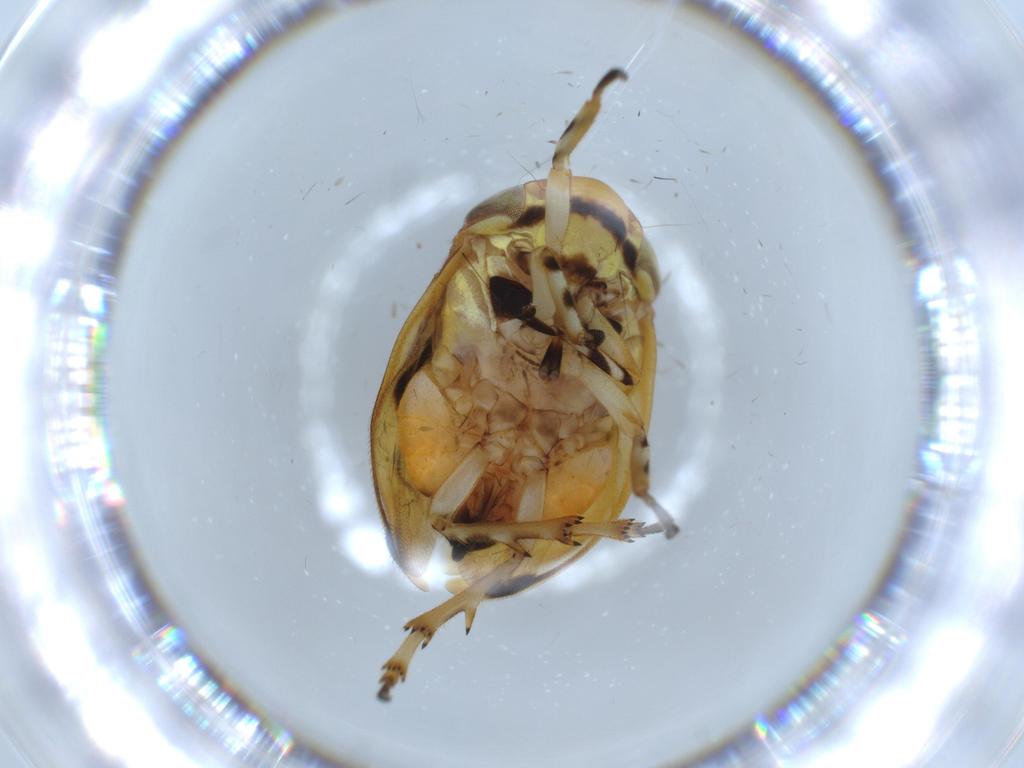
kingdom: Animalia
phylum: Arthropoda
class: Insecta
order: Hemiptera
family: Clastopteridae
